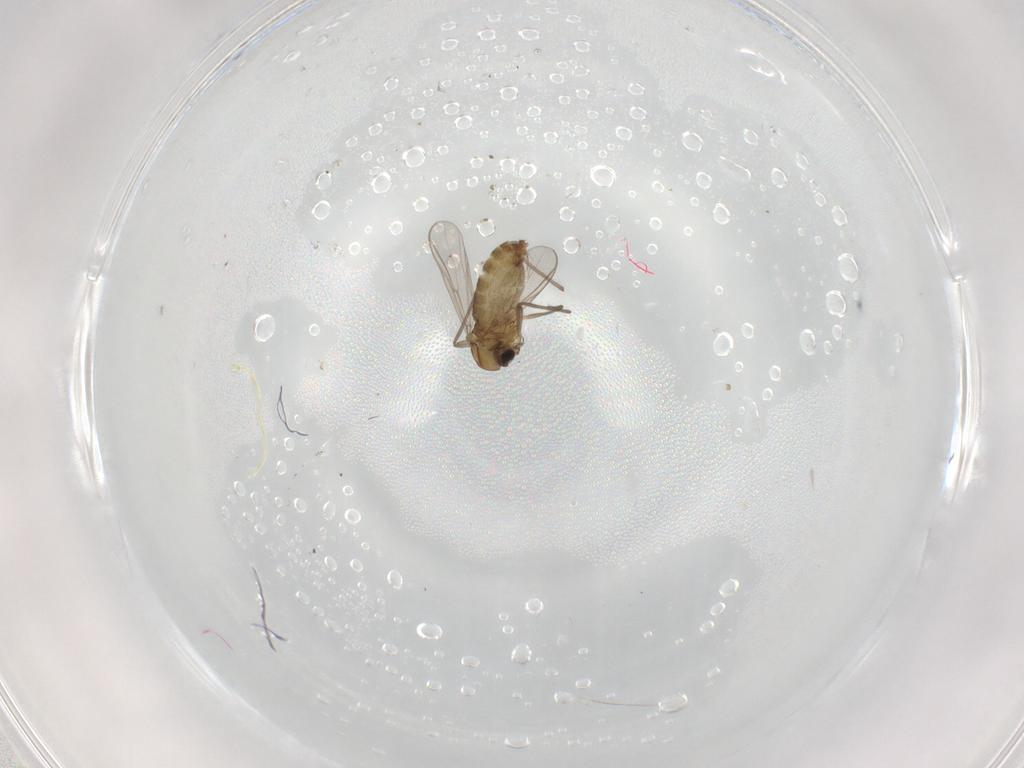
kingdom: Animalia
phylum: Arthropoda
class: Insecta
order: Diptera
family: Chironomidae
